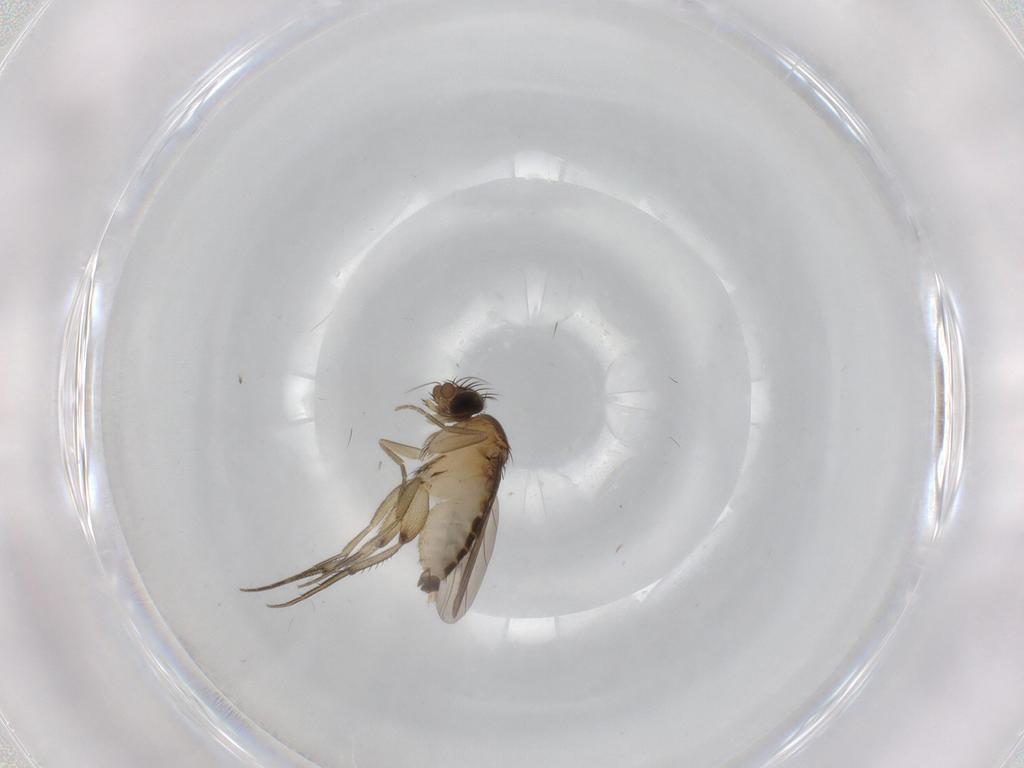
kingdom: Animalia
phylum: Arthropoda
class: Insecta
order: Diptera
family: Phoridae
